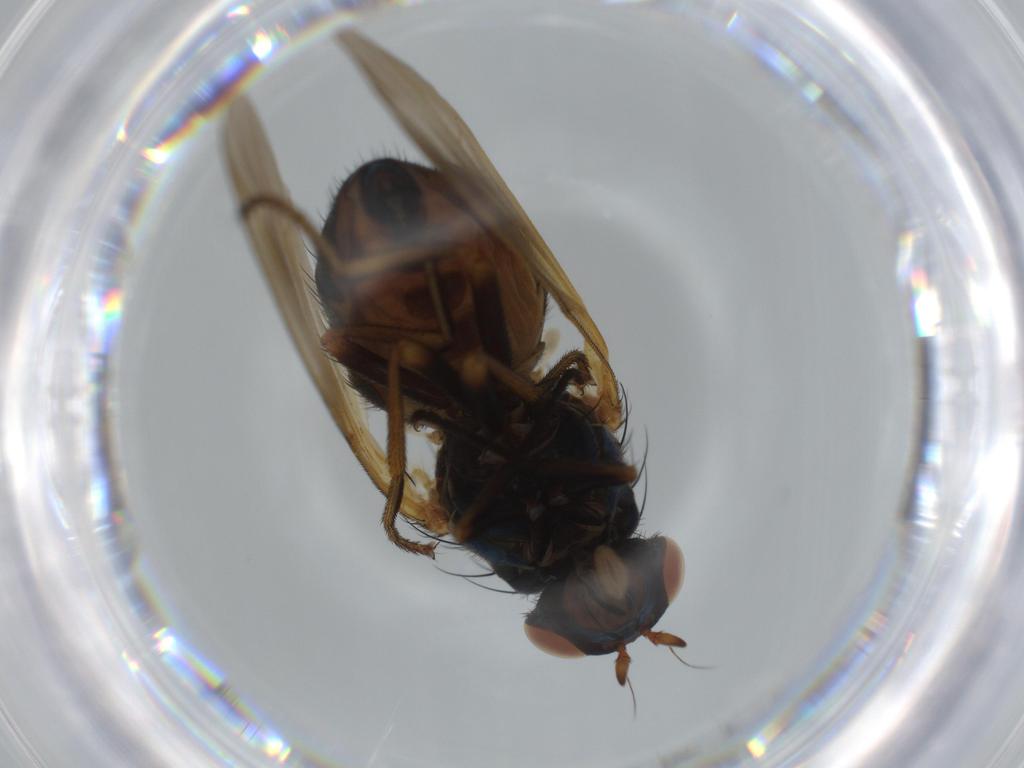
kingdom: Animalia
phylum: Arthropoda
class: Insecta
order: Diptera
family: Lauxaniidae
